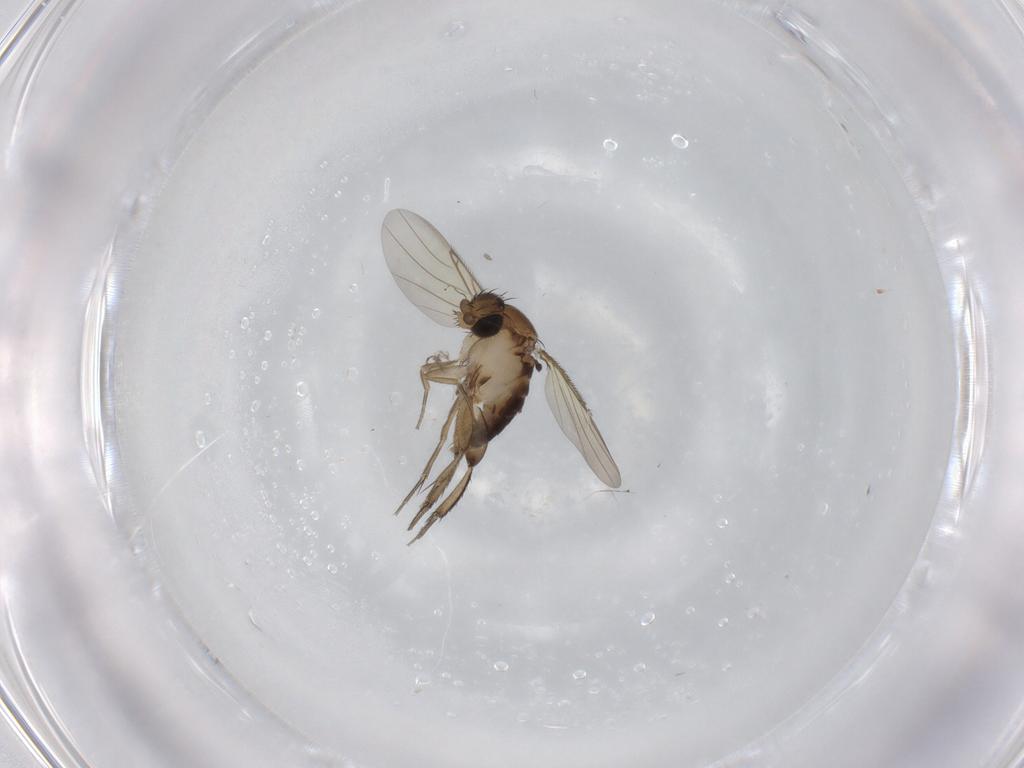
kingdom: Animalia
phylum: Arthropoda
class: Insecta
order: Diptera
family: Phoridae
